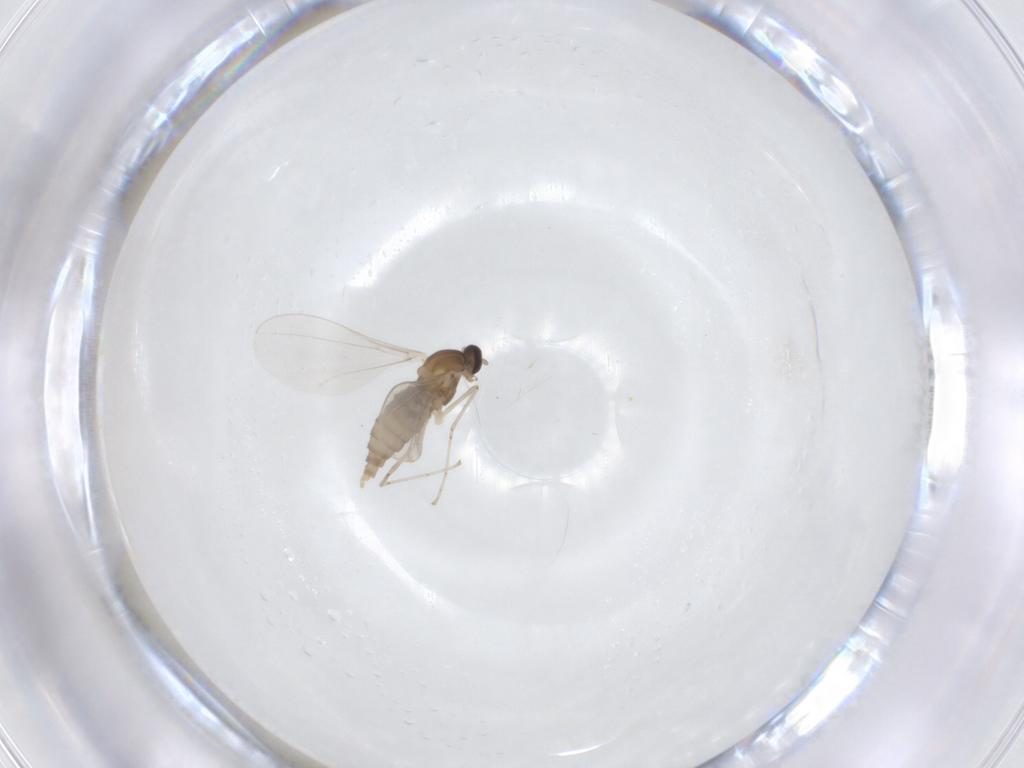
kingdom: Animalia
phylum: Arthropoda
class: Insecta
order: Diptera
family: Cecidomyiidae
